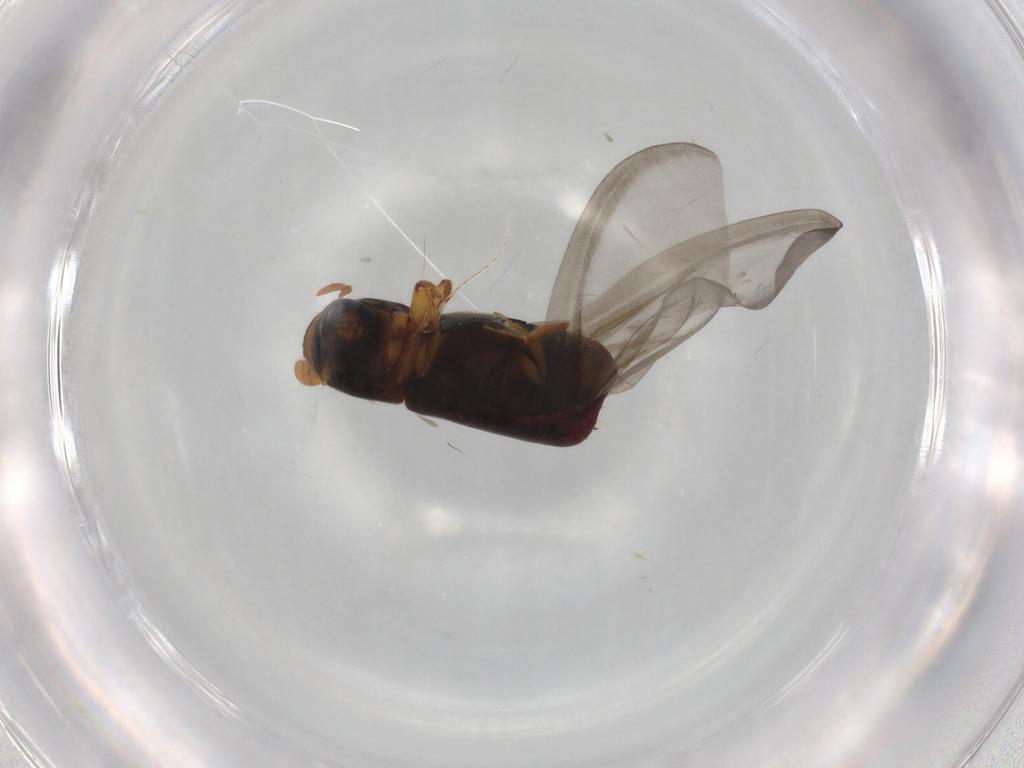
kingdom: Animalia
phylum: Arthropoda
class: Insecta
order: Coleoptera
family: Curculionidae
